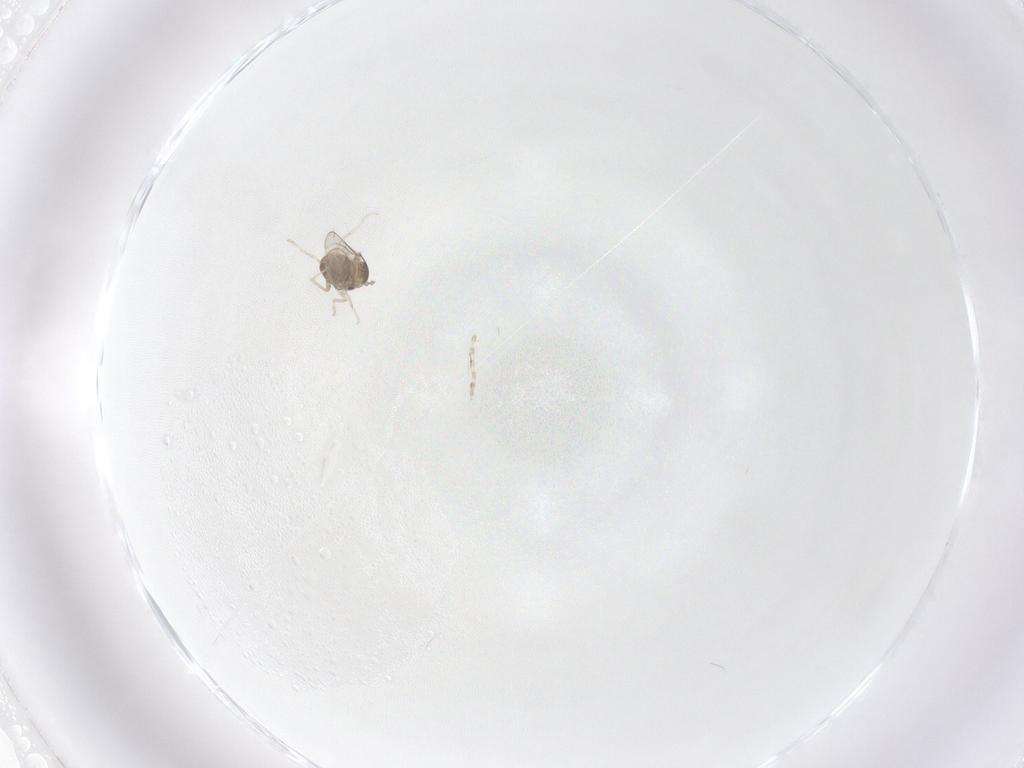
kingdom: Animalia
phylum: Arthropoda
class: Insecta
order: Diptera
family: Cecidomyiidae
